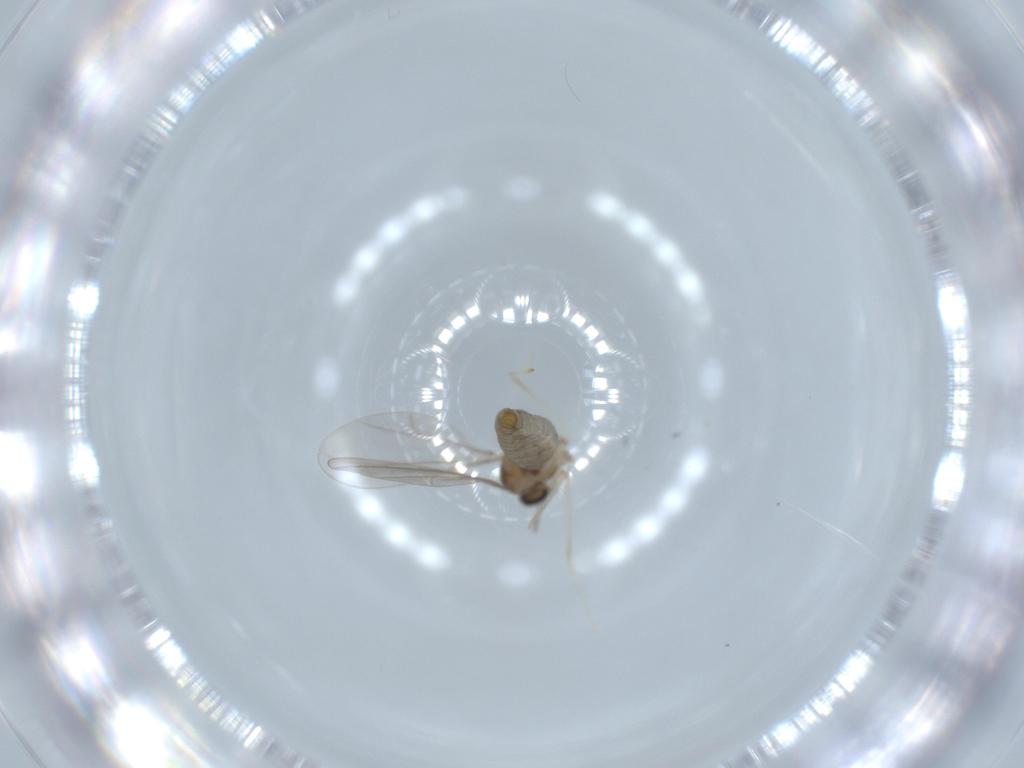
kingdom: Animalia
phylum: Arthropoda
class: Insecta
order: Diptera
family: Cecidomyiidae
